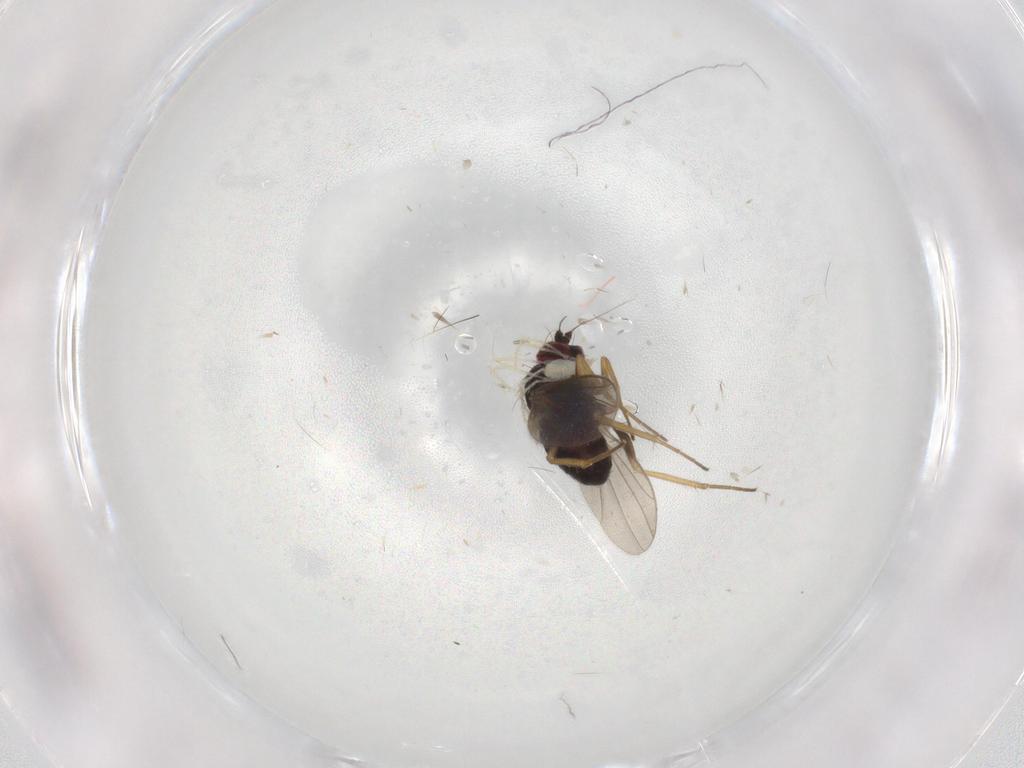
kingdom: Animalia
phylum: Arthropoda
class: Insecta
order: Diptera
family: Dolichopodidae
